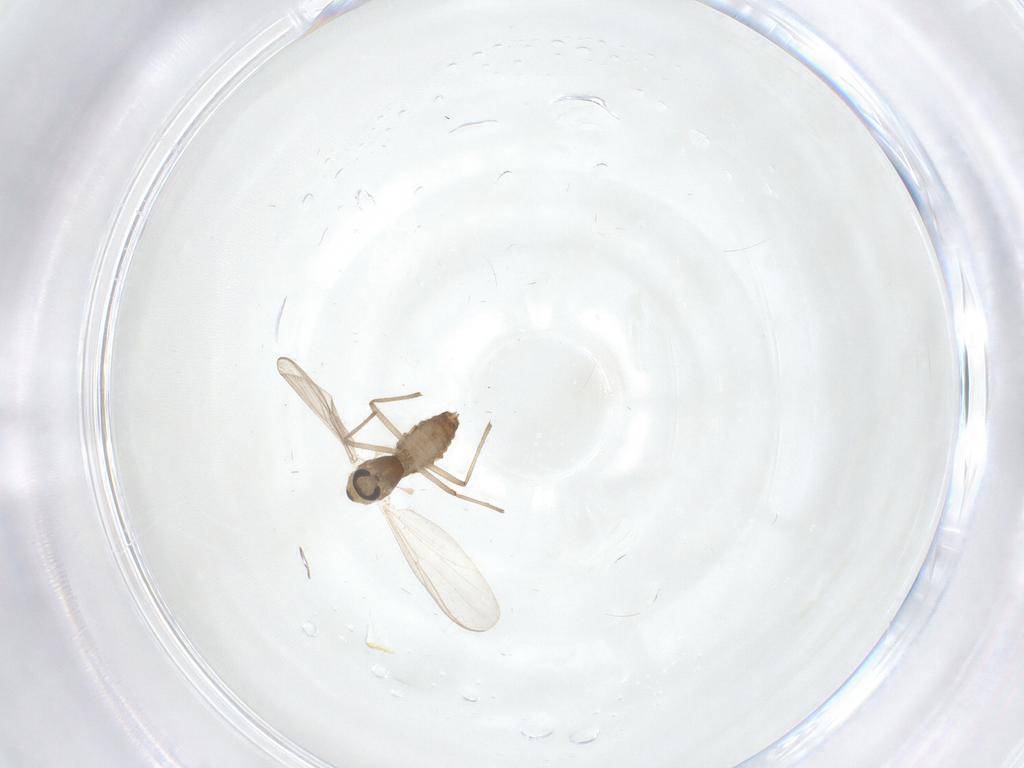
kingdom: Animalia
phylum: Arthropoda
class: Insecta
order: Diptera
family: Chironomidae
